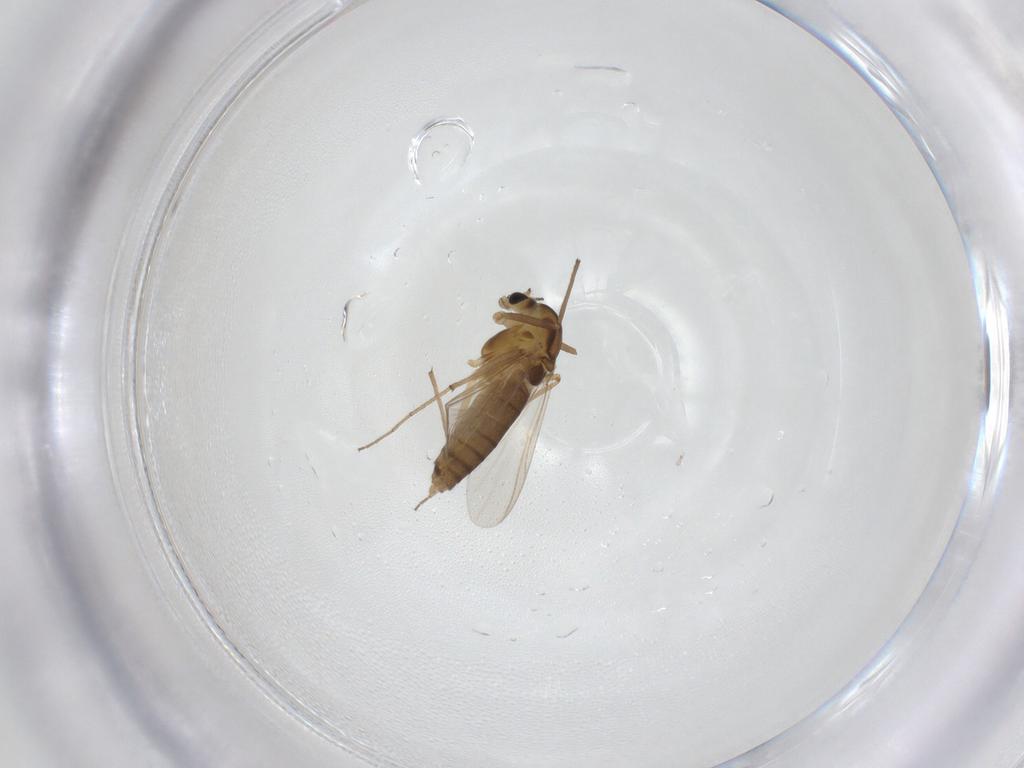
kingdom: Animalia
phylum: Arthropoda
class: Insecta
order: Diptera
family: Chironomidae
